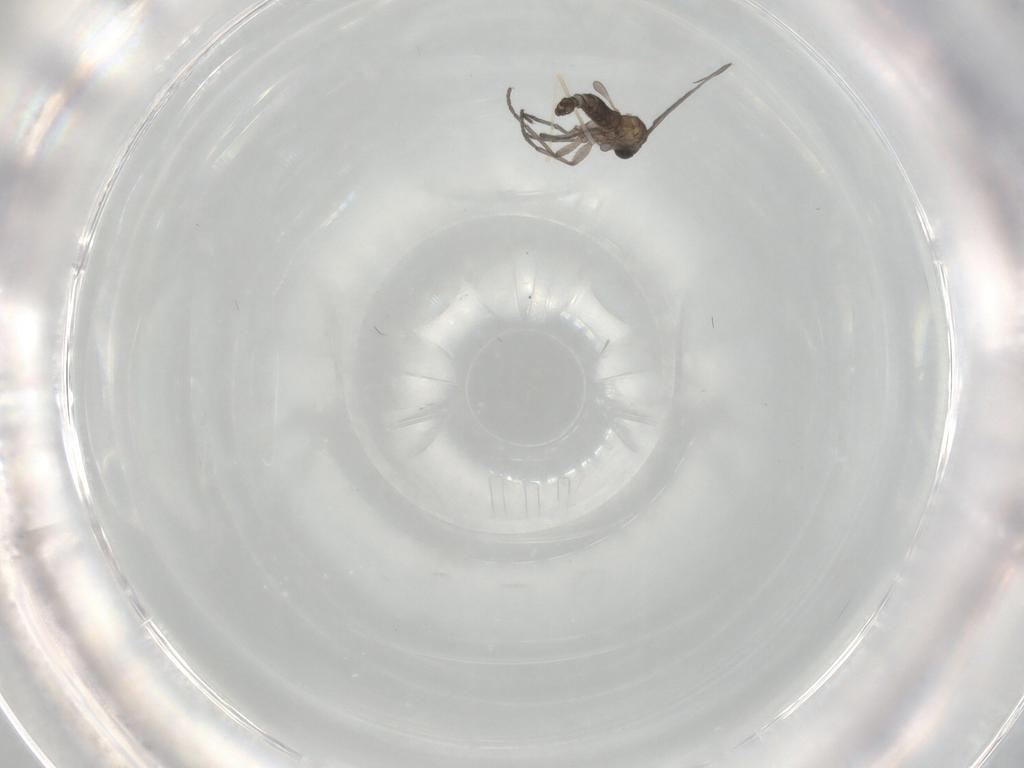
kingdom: Animalia
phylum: Arthropoda
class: Insecta
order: Diptera
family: Sciaridae
